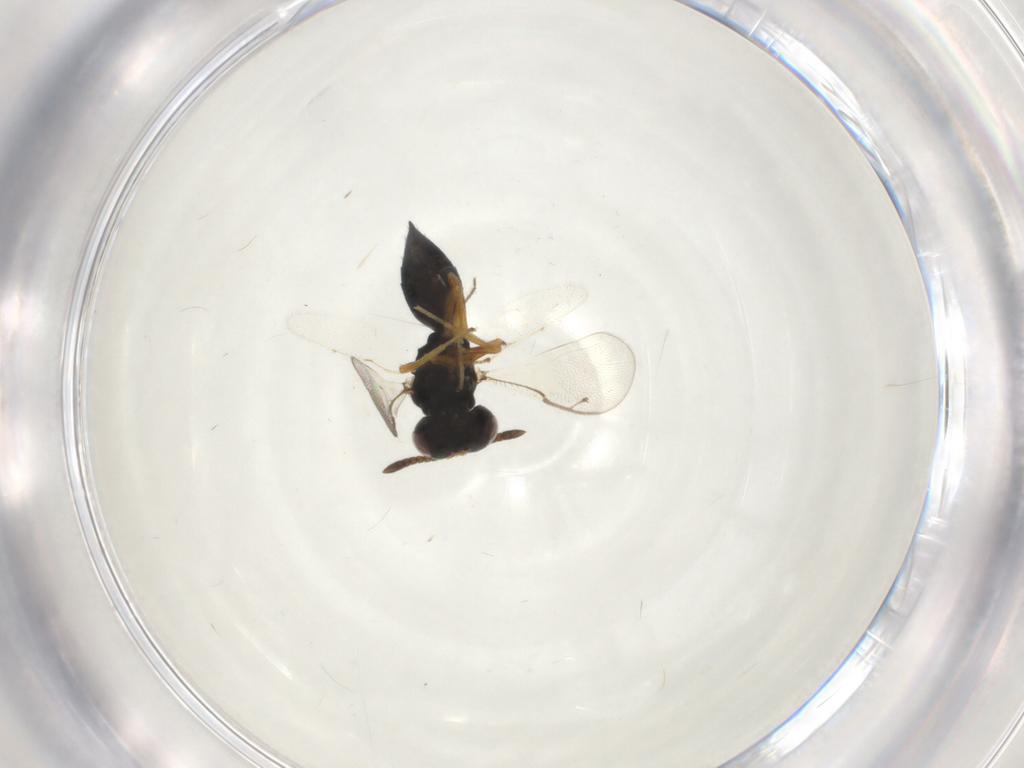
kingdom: Animalia
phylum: Arthropoda
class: Insecta
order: Hymenoptera
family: Pteromalidae
